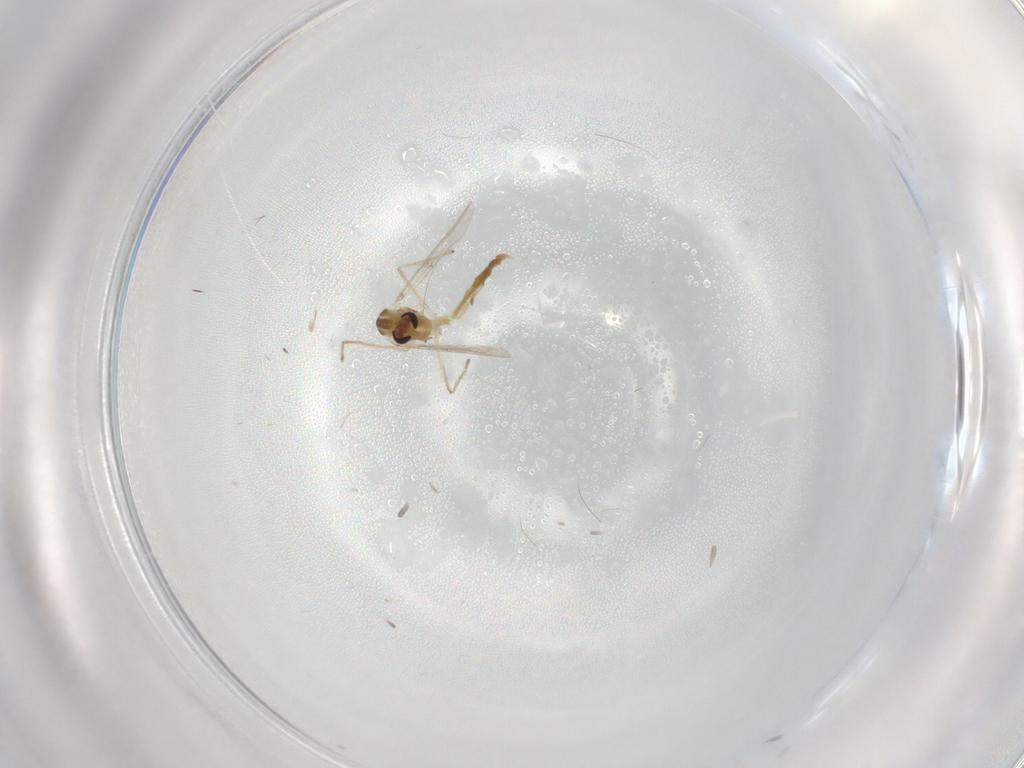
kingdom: Animalia
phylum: Arthropoda
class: Insecta
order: Diptera
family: Chironomidae
